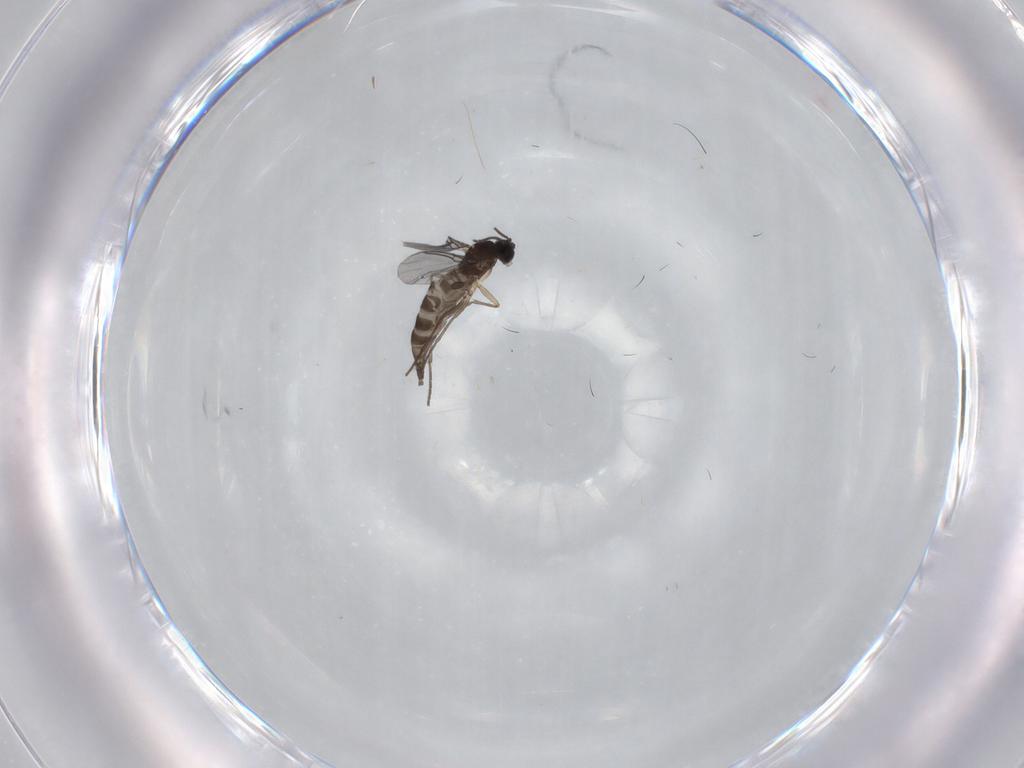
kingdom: Animalia
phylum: Arthropoda
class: Insecta
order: Diptera
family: Sciaridae
